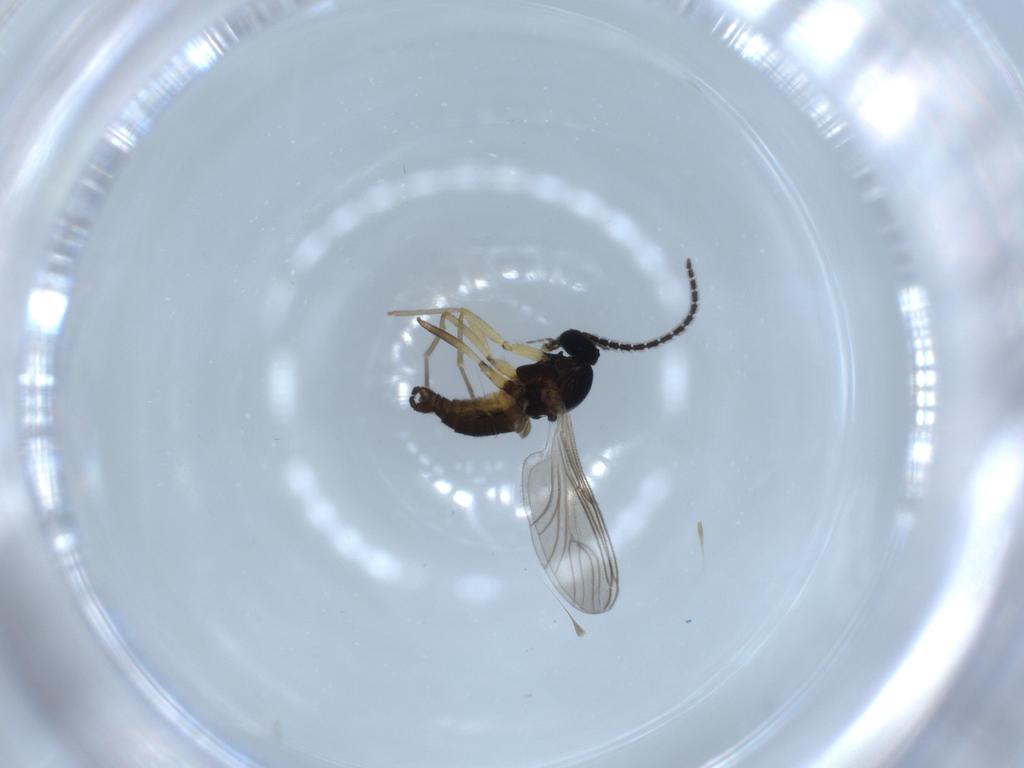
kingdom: Animalia
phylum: Arthropoda
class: Insecta
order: Diptera
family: Sciaridae
